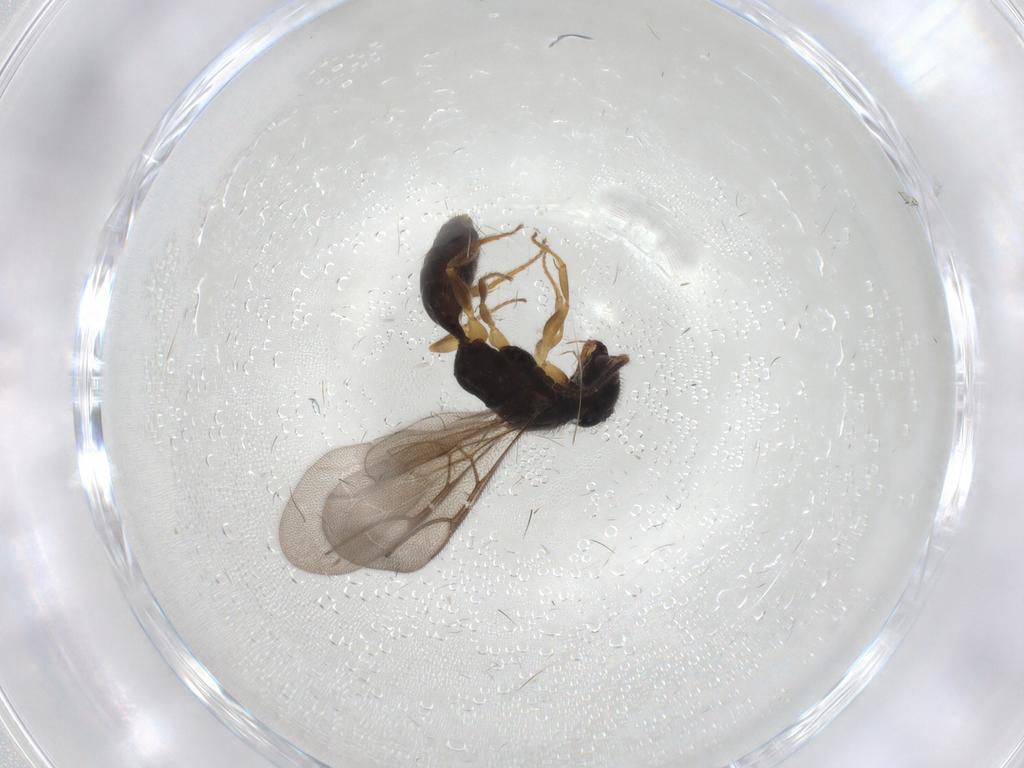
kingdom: Animalia
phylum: Arthropoda
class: Insecta
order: Hymenoptera
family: Bethylidae
